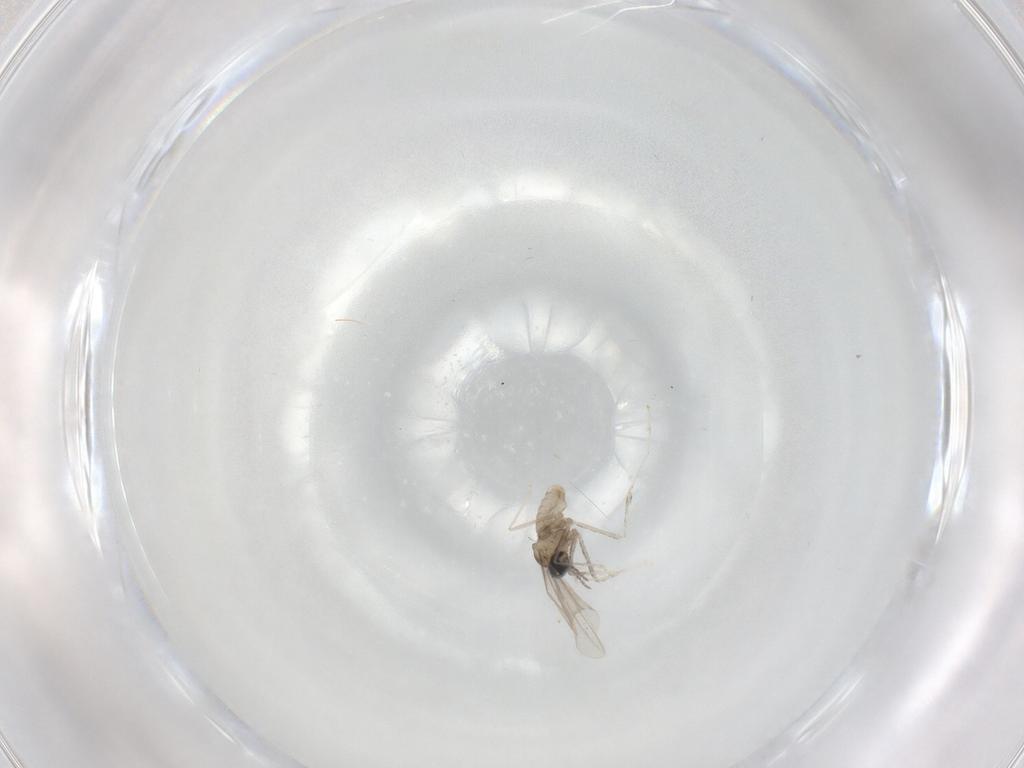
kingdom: Animalia
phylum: Arthropoda
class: Insecta
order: Diptera
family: Cecidomyiidae
